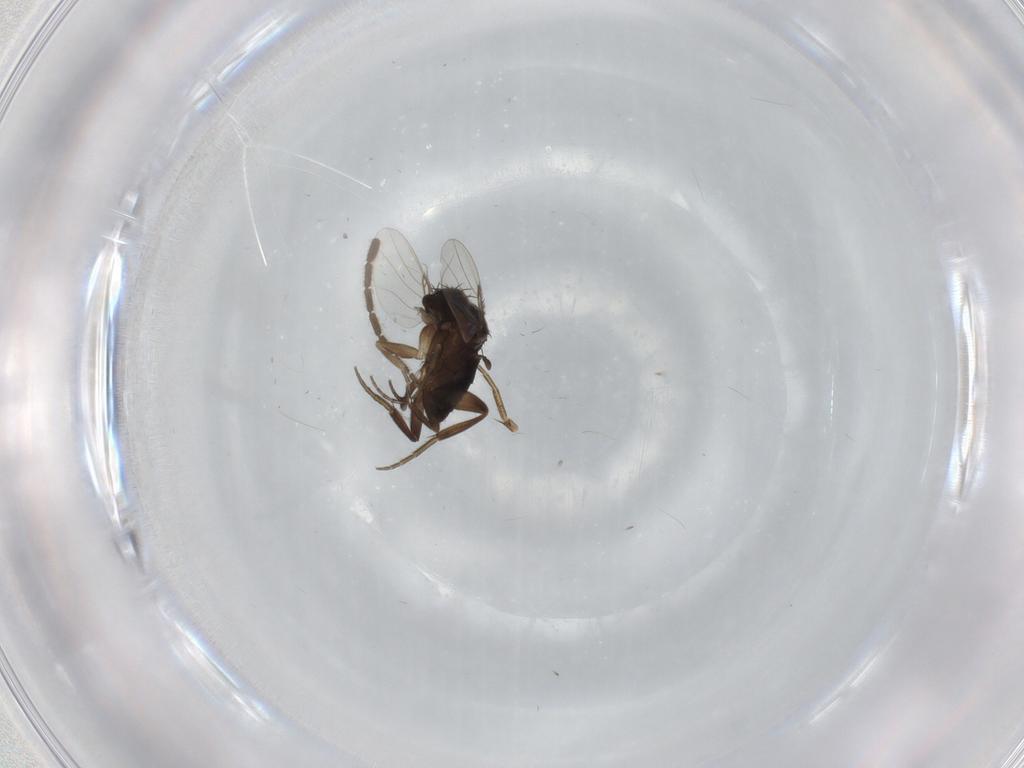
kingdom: Animalia
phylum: Arthropoda
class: Insecta
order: Diptera
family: Phoridae
